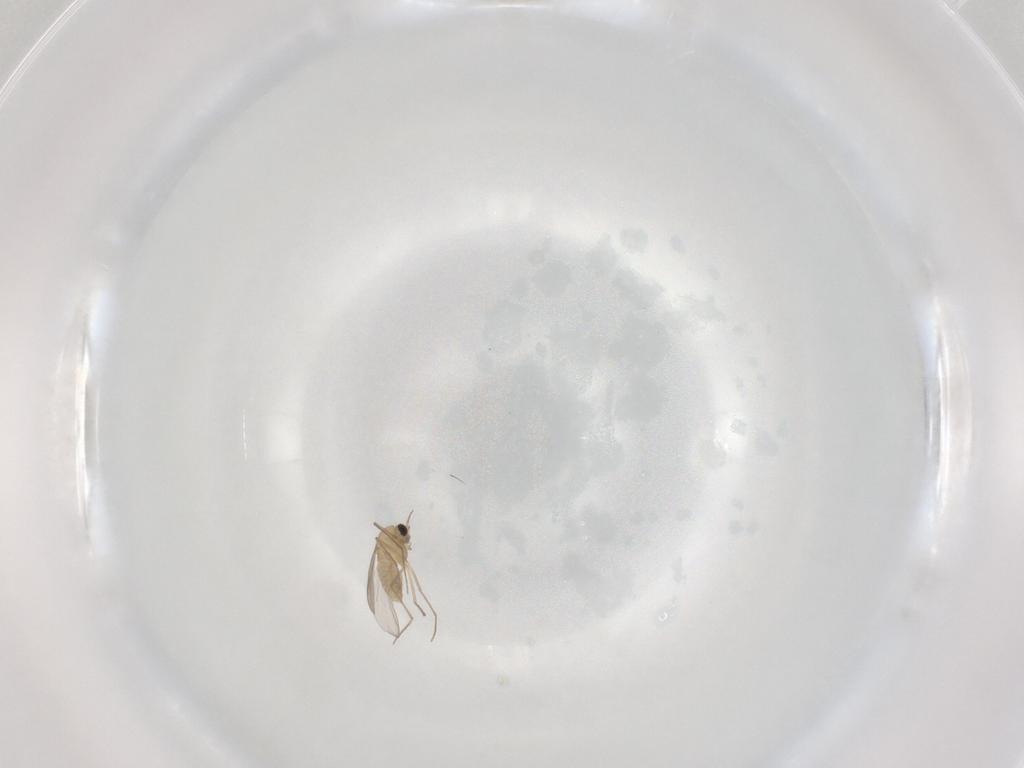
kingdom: Animalia
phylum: Arthropoda
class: Insecta
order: Diptera
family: Chironomidae
